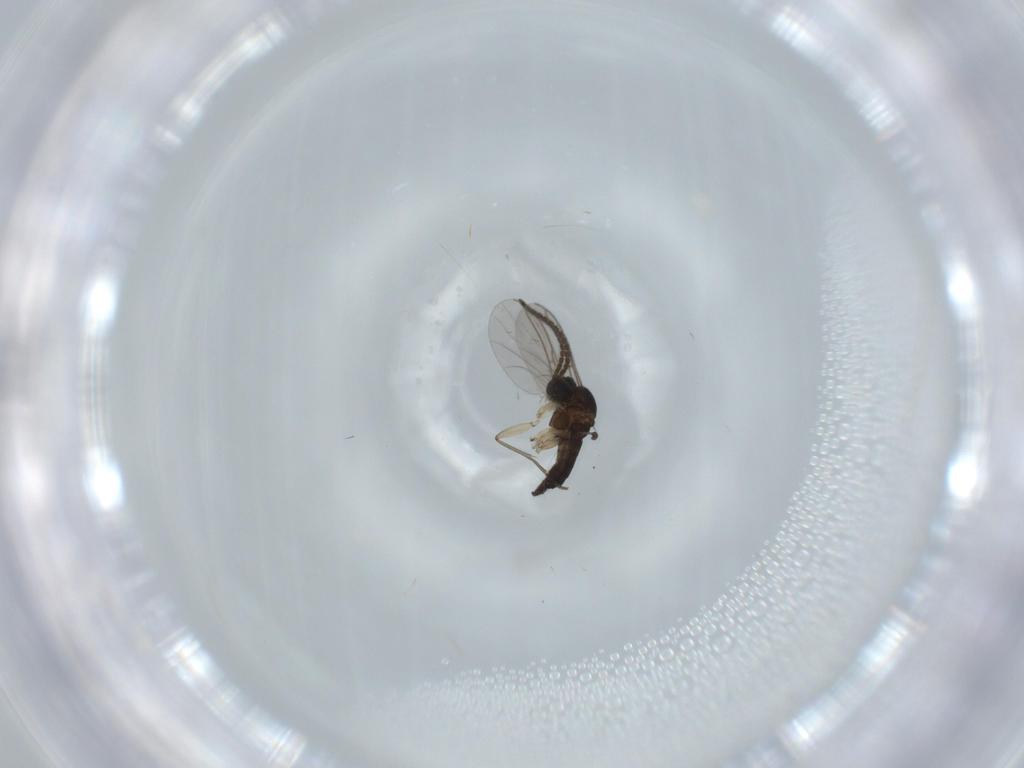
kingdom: Animalia
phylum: Arthropoda
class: Insecta
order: Diptera
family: Sciaridae
